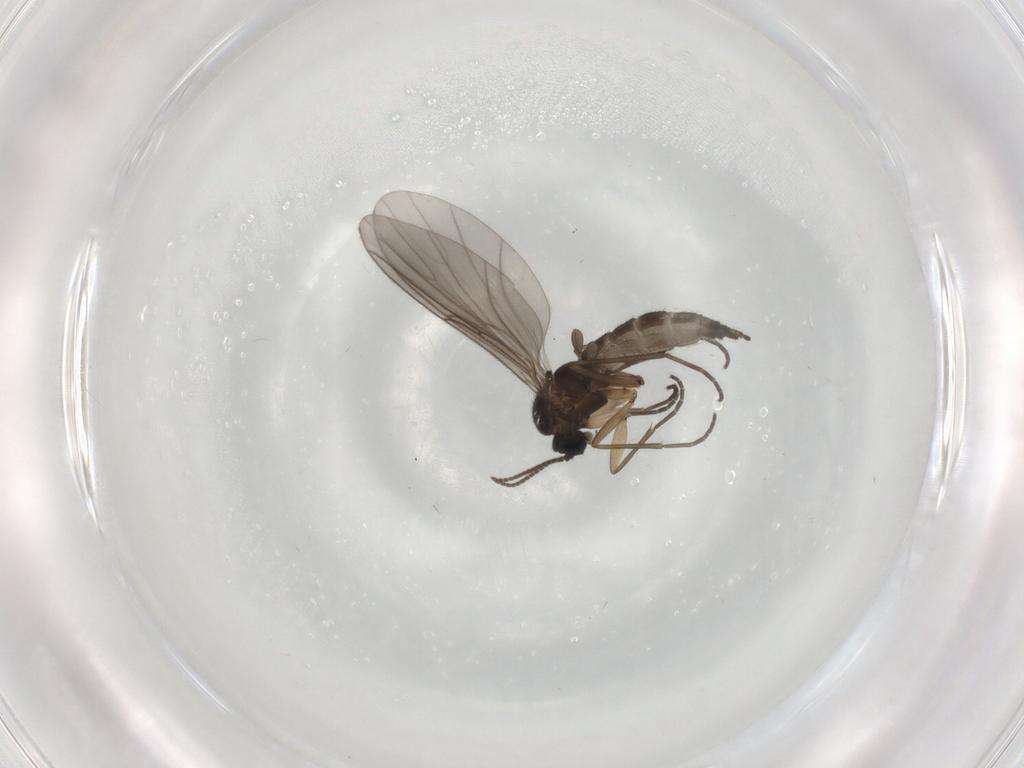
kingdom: Animalia
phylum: Arthropoda
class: Insecta
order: Diptera
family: Sciaridae
